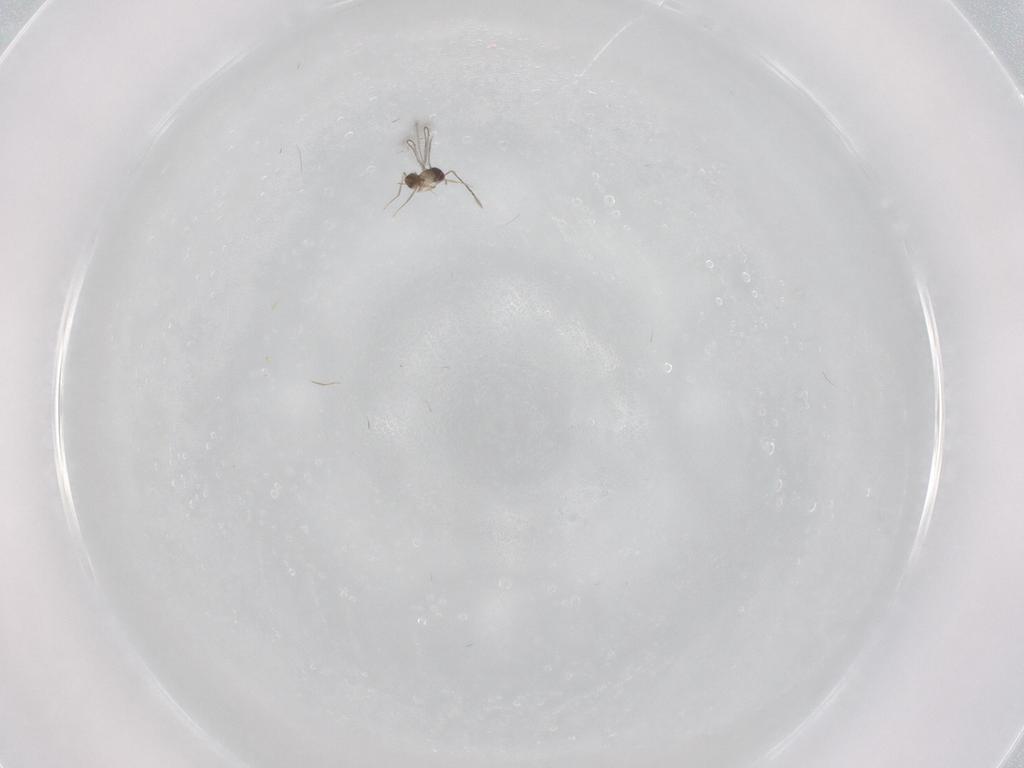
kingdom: Animalia
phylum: Arthropoda
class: Insecta
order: Hymenoptera
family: Mymaridae
